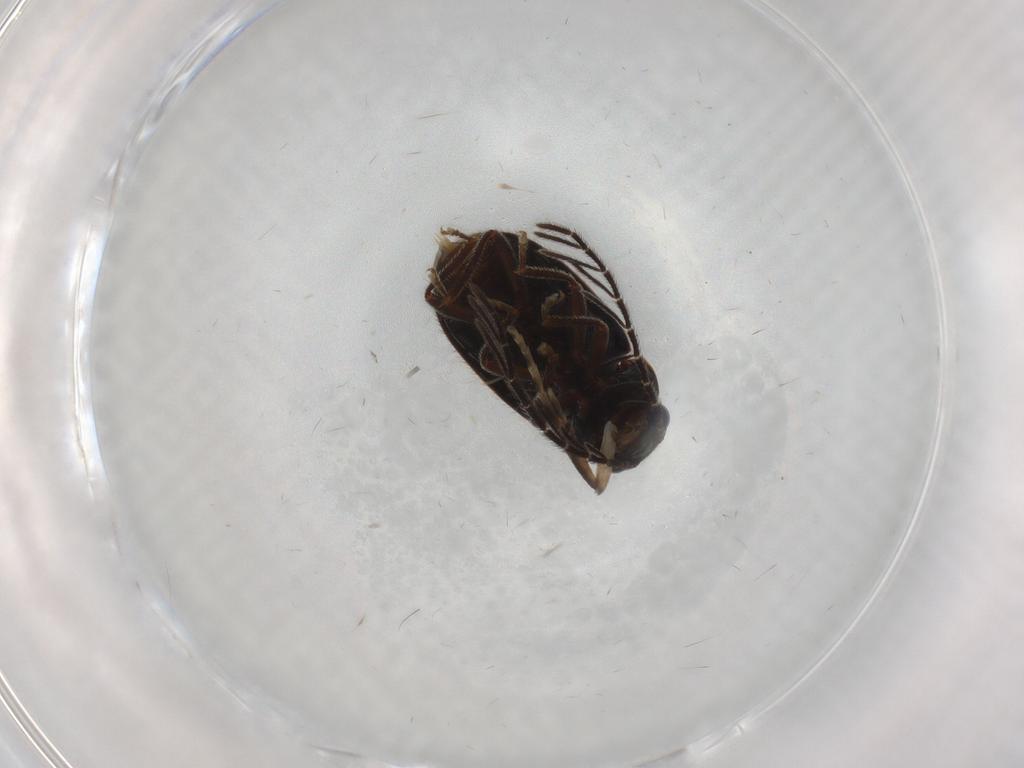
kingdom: Animalia
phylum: Arthropoda
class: Insecta
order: Coleoptera
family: Ptilodactylidae
